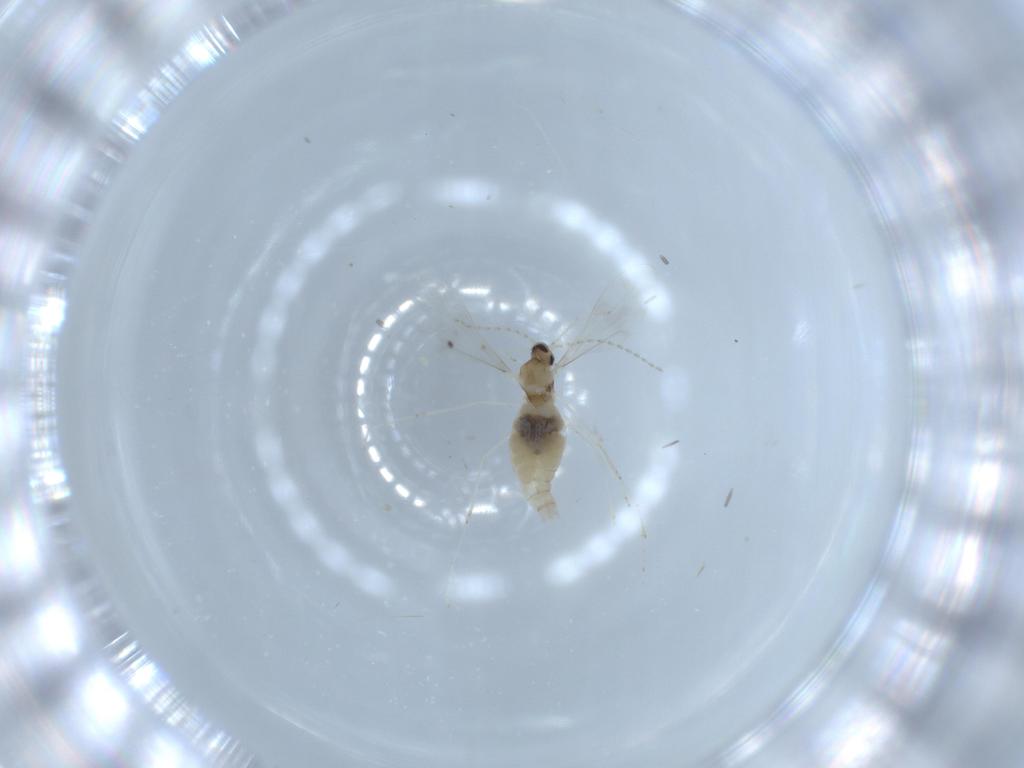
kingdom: Animalia
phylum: Arthropoda
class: Insecta
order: Diptera
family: Cecidomyiidae
